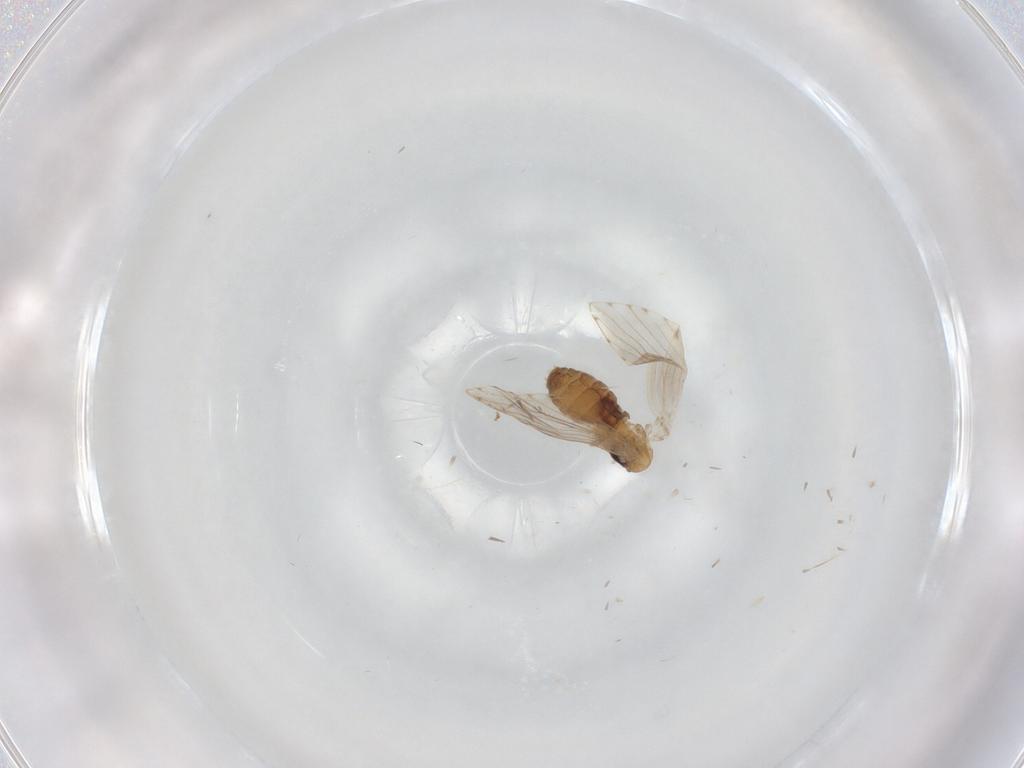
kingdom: Animalia
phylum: Arthropoda
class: Insecta
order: Diptera
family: Psychodidae
